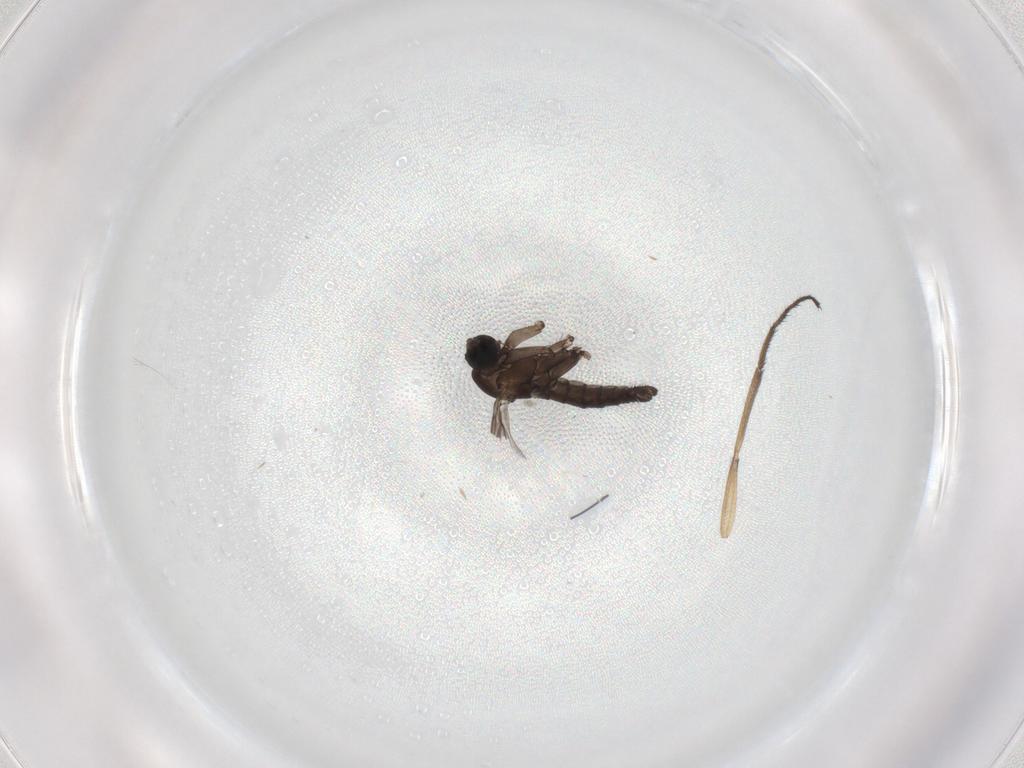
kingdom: Animalia
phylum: Arthropoda
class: Insecta
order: Diptera
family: Empididae
